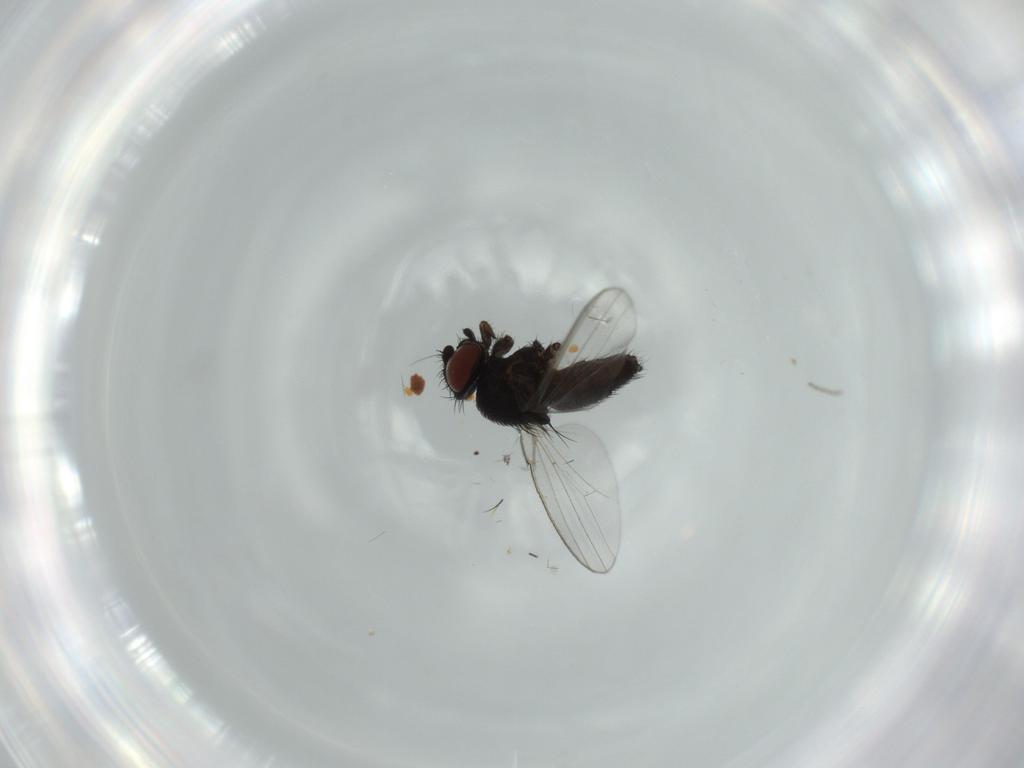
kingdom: Animalia
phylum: Arthropoda
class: Insecta
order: Diptera
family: Milichiidae
